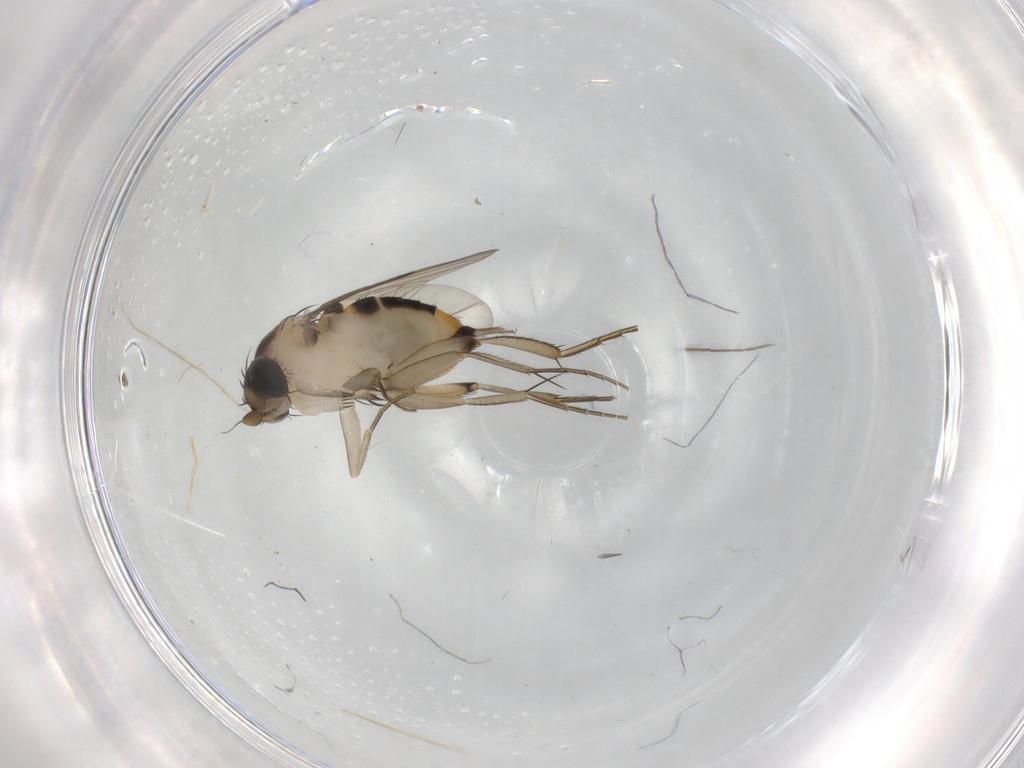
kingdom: Animalia
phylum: Arthropoda
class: Insecta
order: Diptera
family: Phoridae
